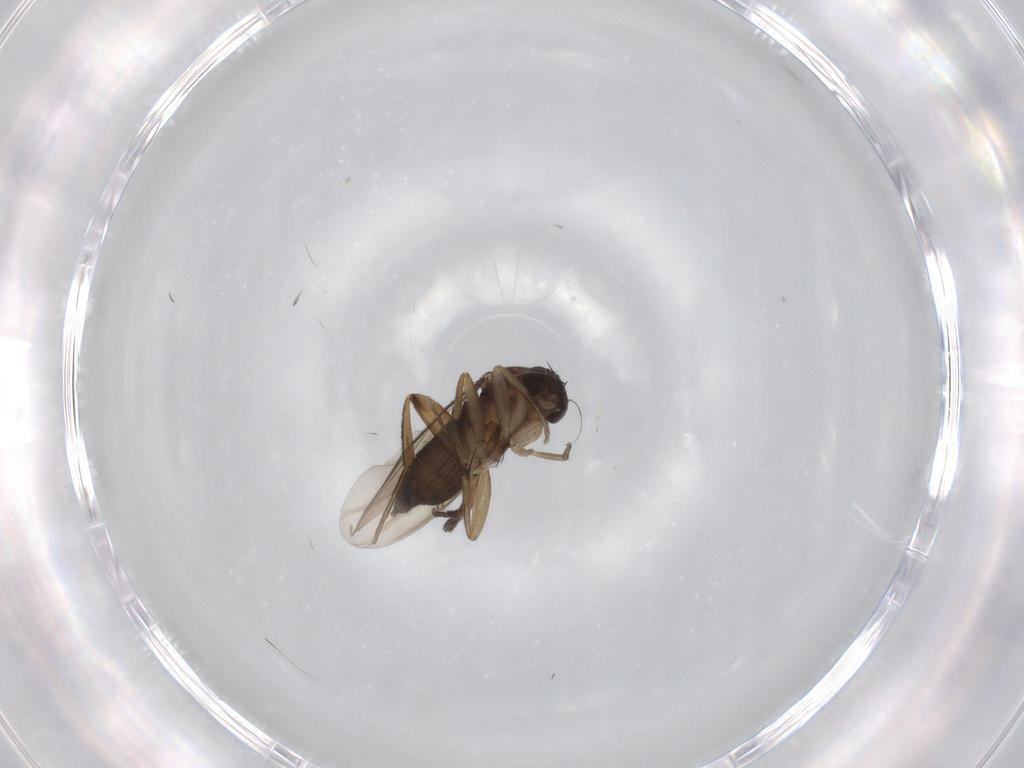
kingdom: Animalia
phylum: Arthropoda
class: Insecta
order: Diptera
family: Phoridae
